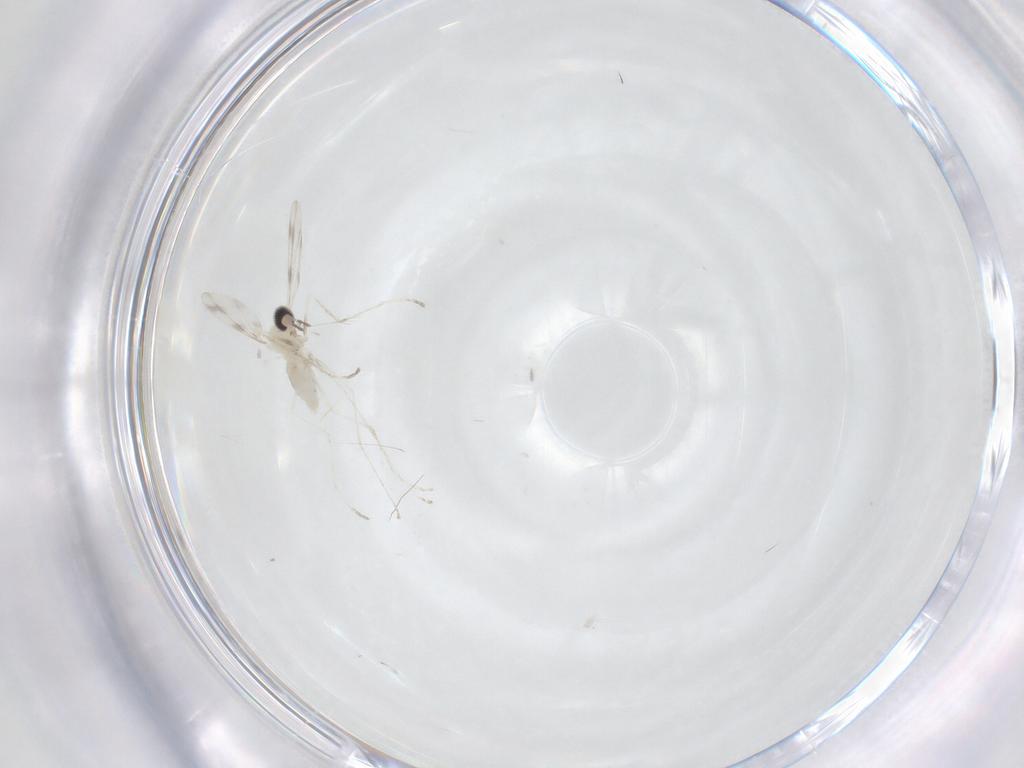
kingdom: Animalia
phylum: Arthropoda
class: Insecta
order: Diptera
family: Cecidomyiidae
